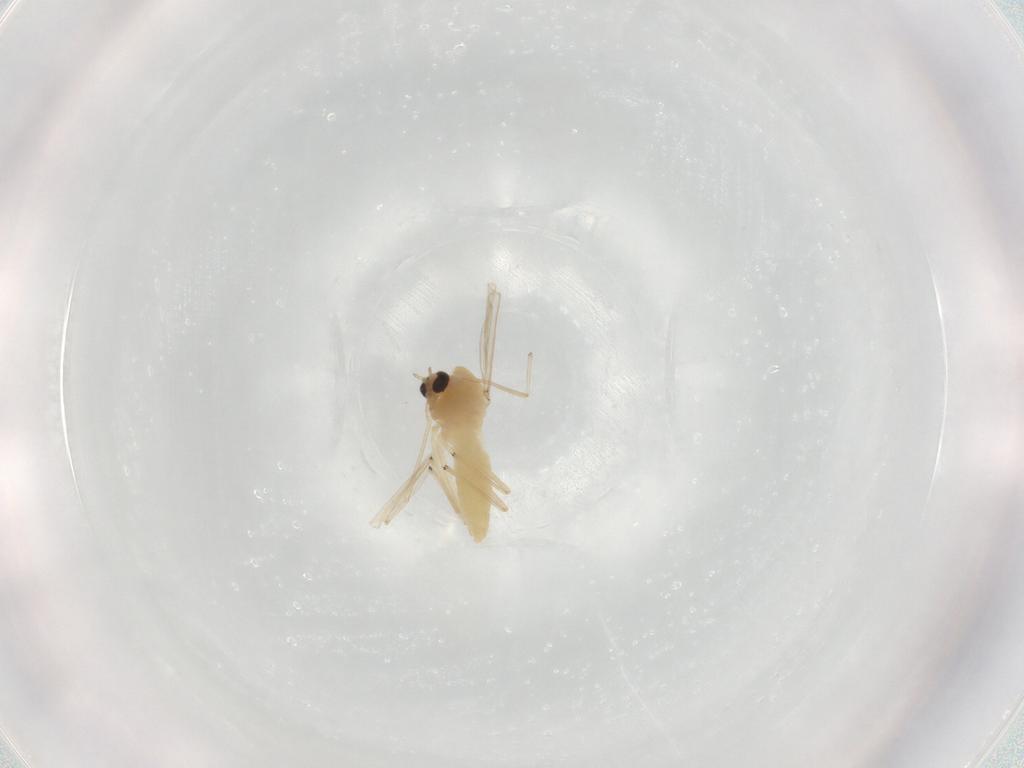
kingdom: Animalia
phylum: Arthropoda
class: Insecta
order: Diptera
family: Chironomidae
